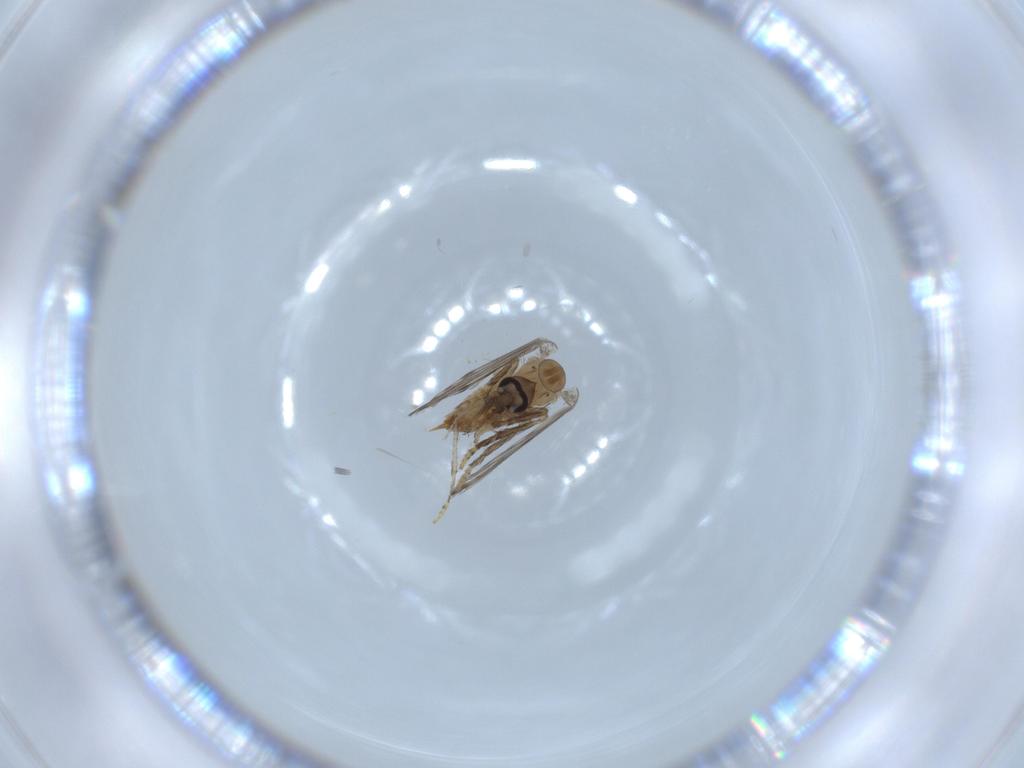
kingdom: Animalia
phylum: Arthropoda
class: Insecta
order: Diptera
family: Psychodidae
